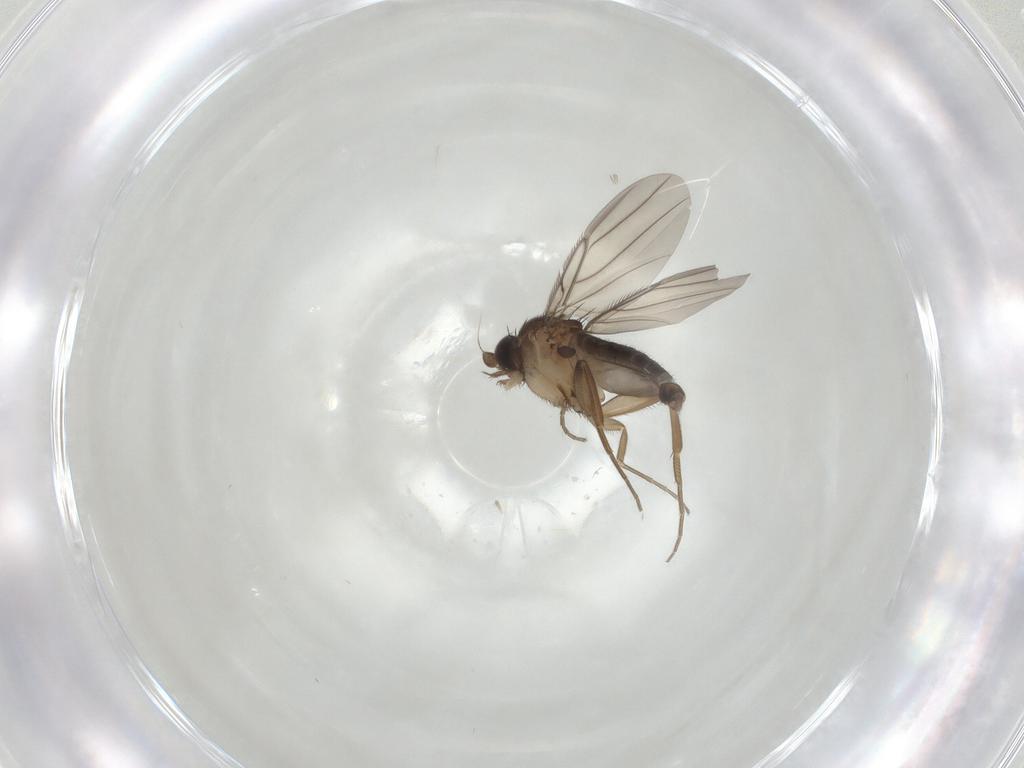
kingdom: Animalia
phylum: Arthropoda
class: Insecta
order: Diptera
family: Phoridae
